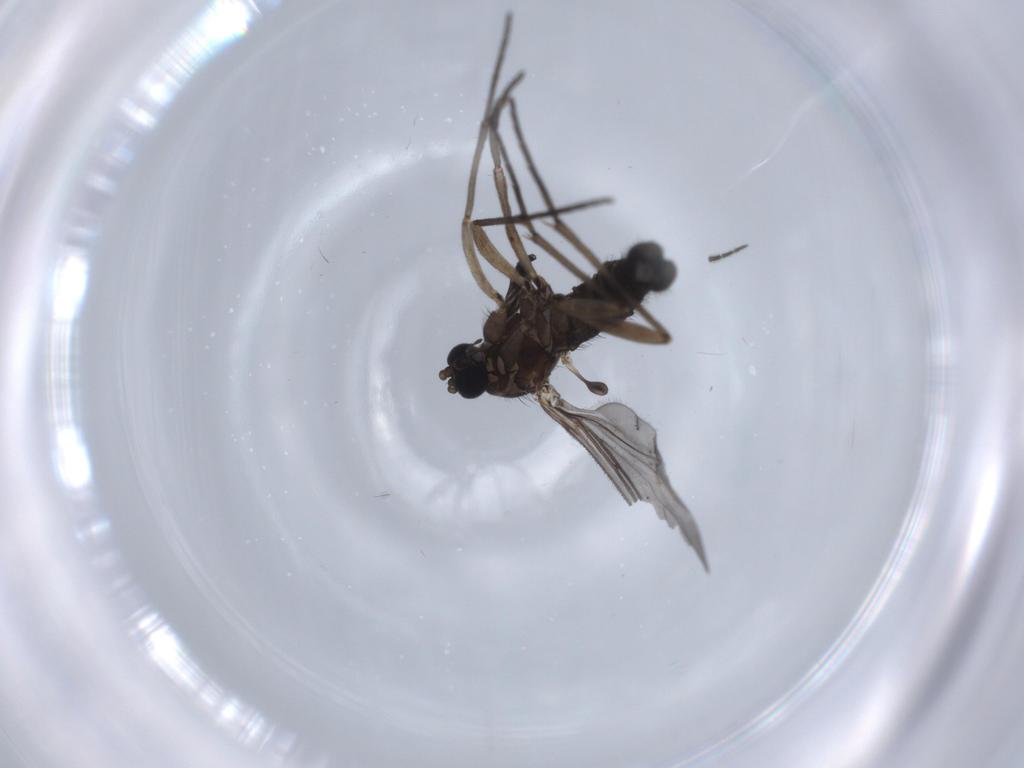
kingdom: Animalia
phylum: Arthropoda
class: Insecta
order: Diptera
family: Sciaridae
